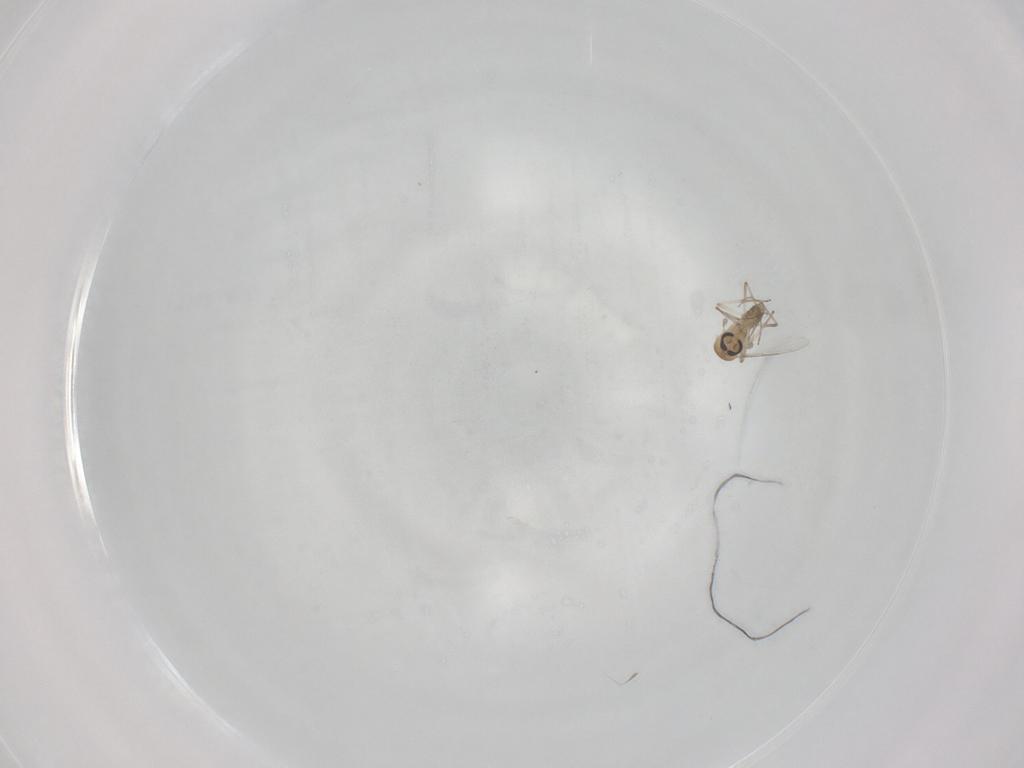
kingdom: Animalia
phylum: Arthropoda
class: Insecta
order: Diptera
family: Ceratopogonidae
